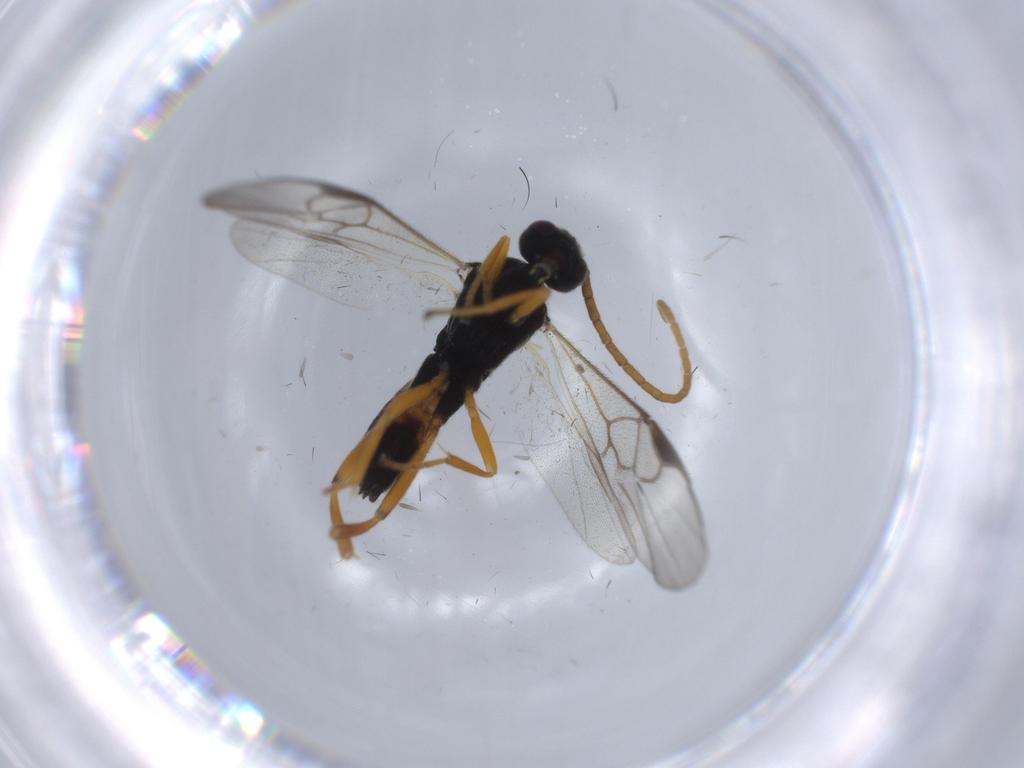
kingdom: Animalia
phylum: Arthropoda
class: Insecta
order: Hymenoptera
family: Braconidae
